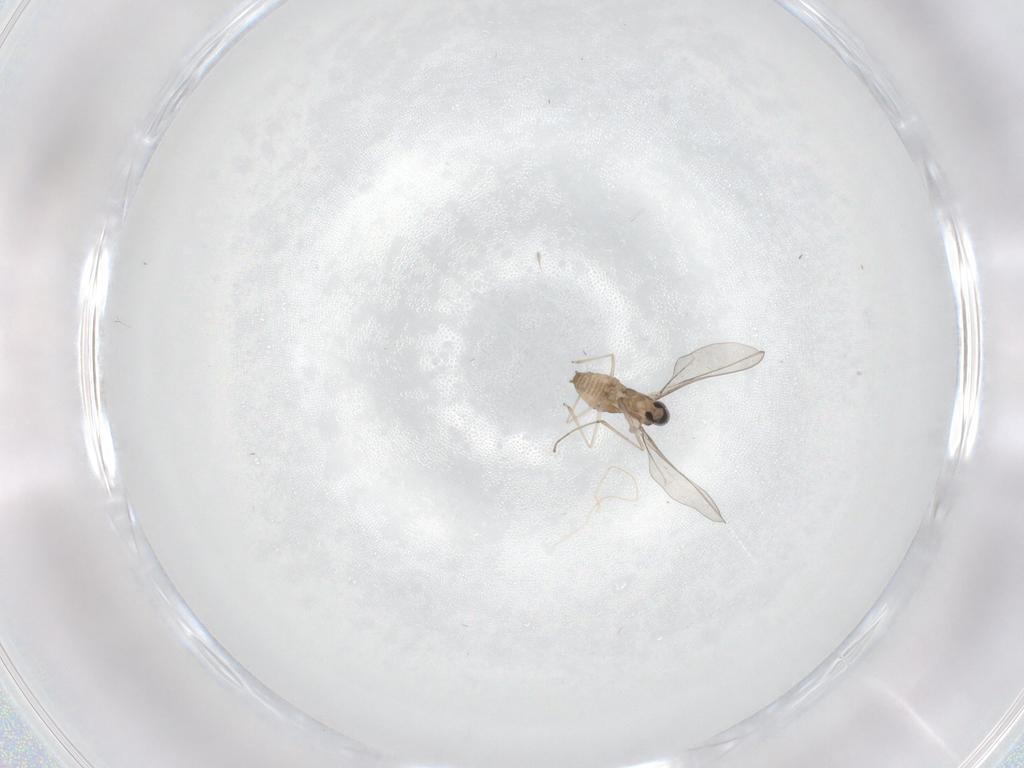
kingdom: Animalia
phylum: Arthropoda
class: Insecta
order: Diptera
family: Cecidomyiidae
